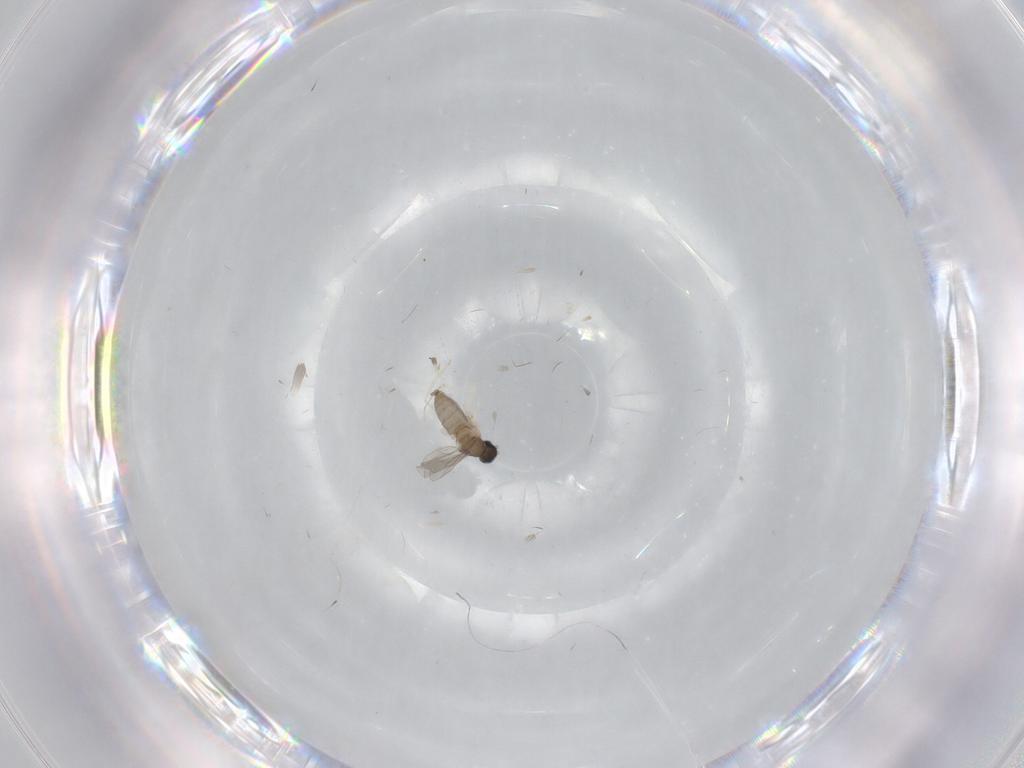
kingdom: Animalia
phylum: Arthropoda
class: Insecta
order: Diptera
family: Cecidomyiidae
